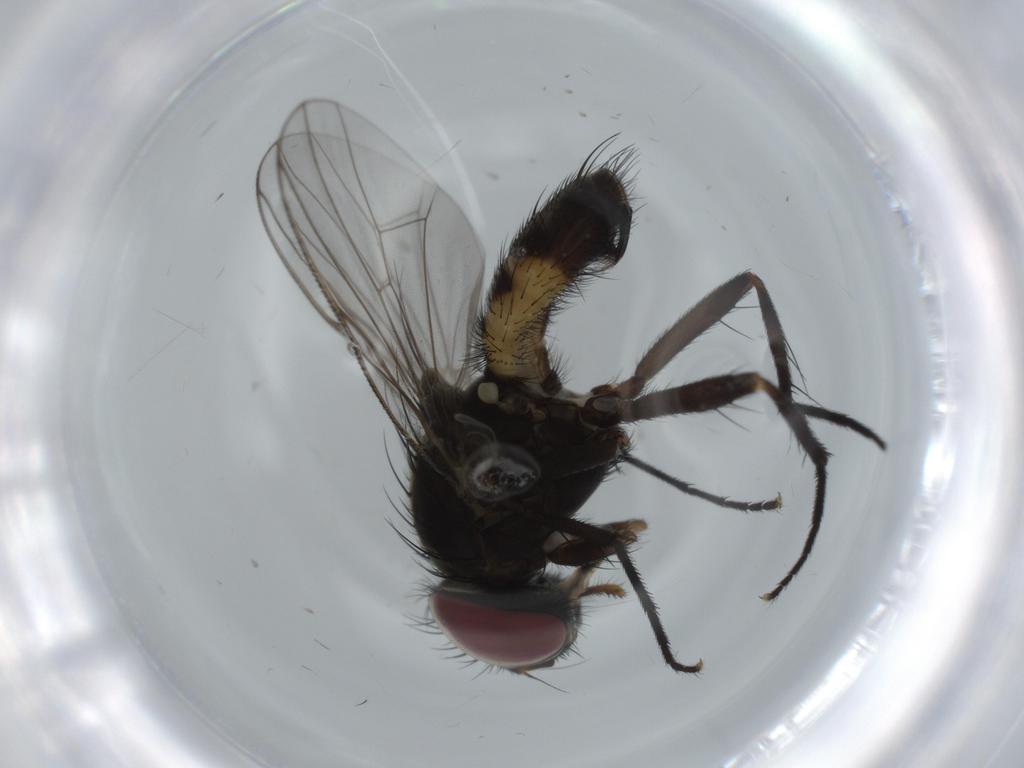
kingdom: Animalia
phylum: Arthropoda
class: Insecta
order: Diptera
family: Fannia
